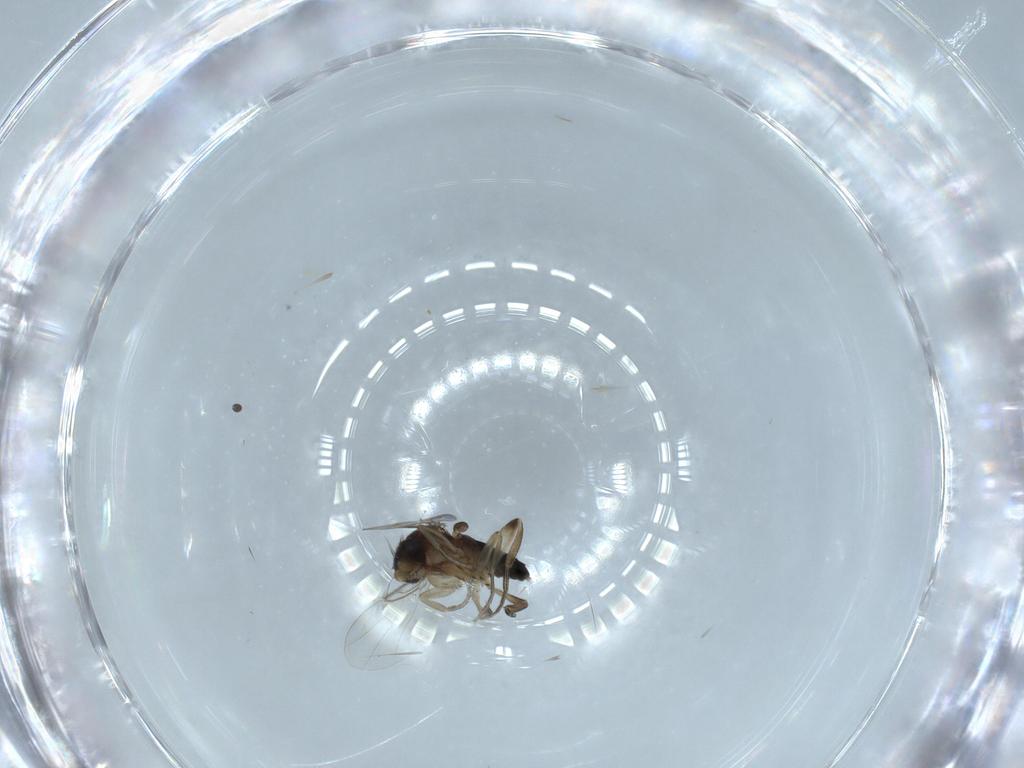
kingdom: Animalia
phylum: Arthropoda
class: Insecta
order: Diptera
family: Phoridae
